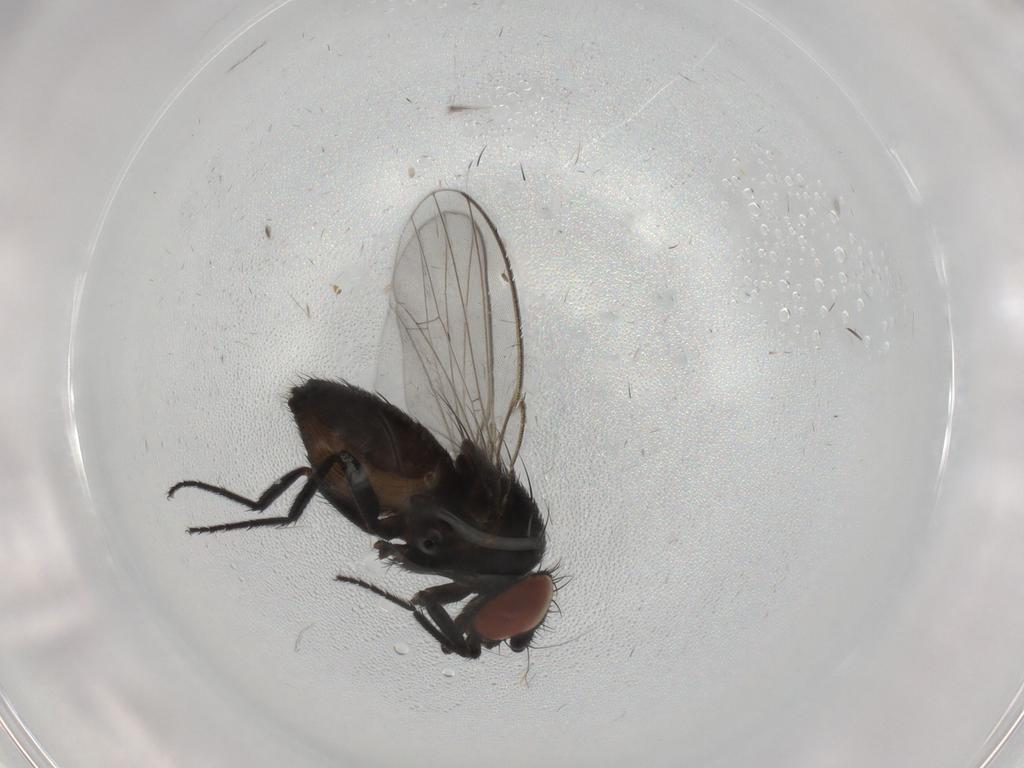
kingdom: Animalia
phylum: Arthropoda
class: Insecta
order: Diptera
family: Milichiidae
